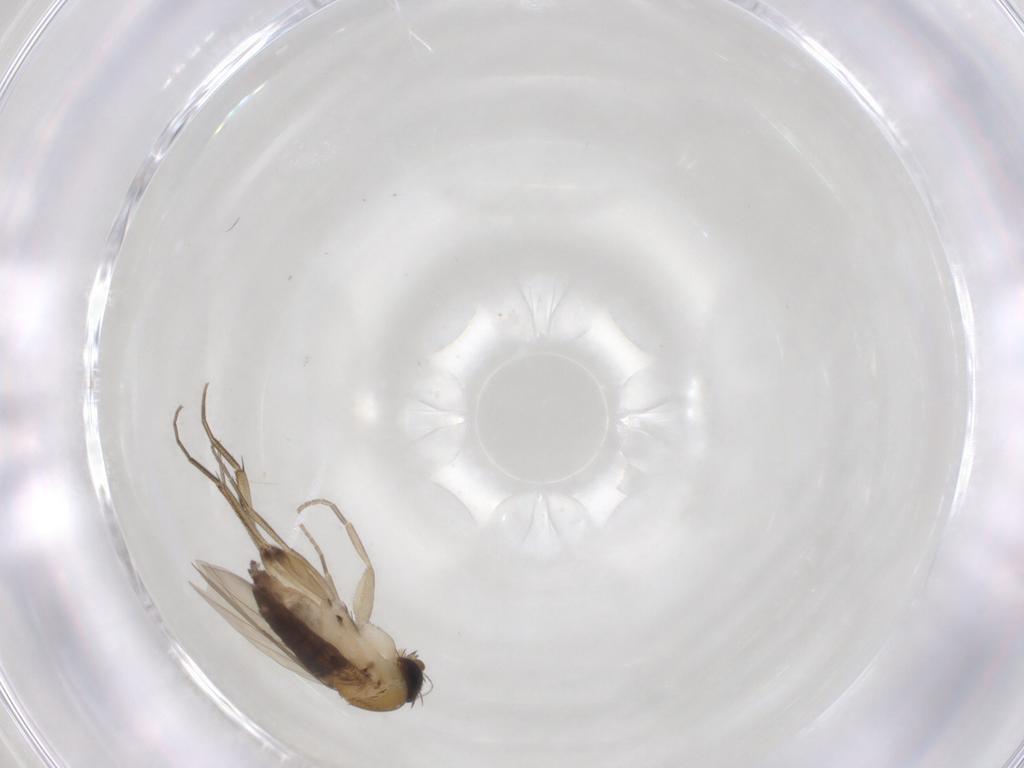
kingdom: Animalia
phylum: Arthropoda
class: Insecta
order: Diptera
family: Phoridae
